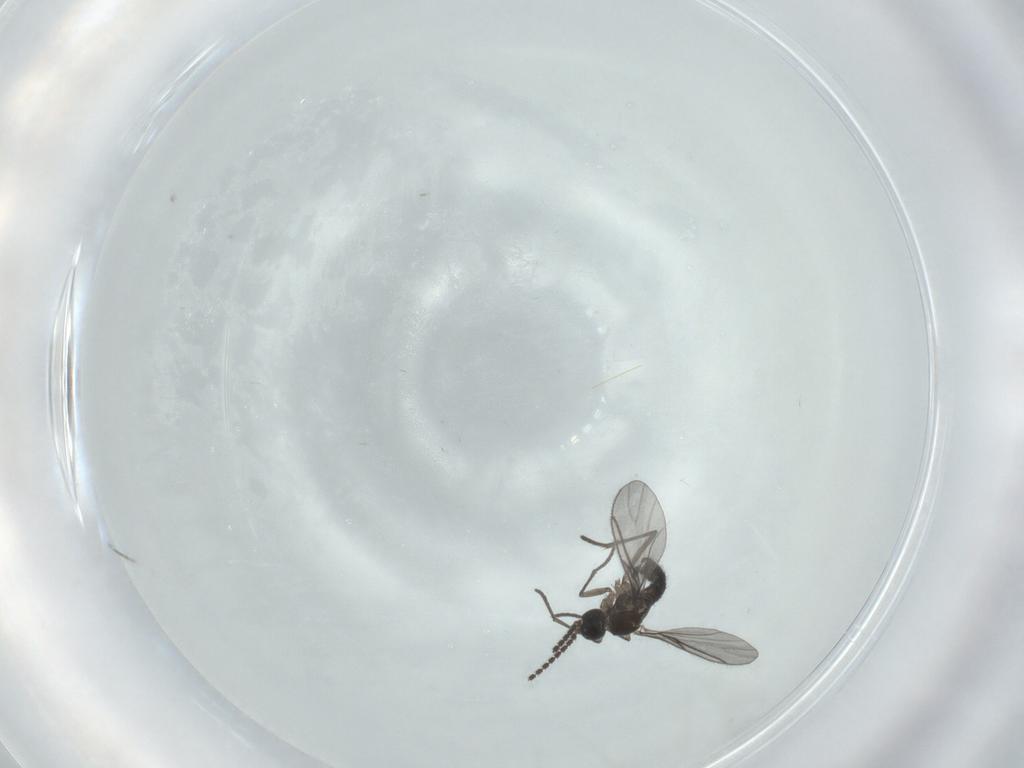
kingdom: Animalia
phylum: Arthropoda
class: Insecta
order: Diptera
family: Sciaridae
